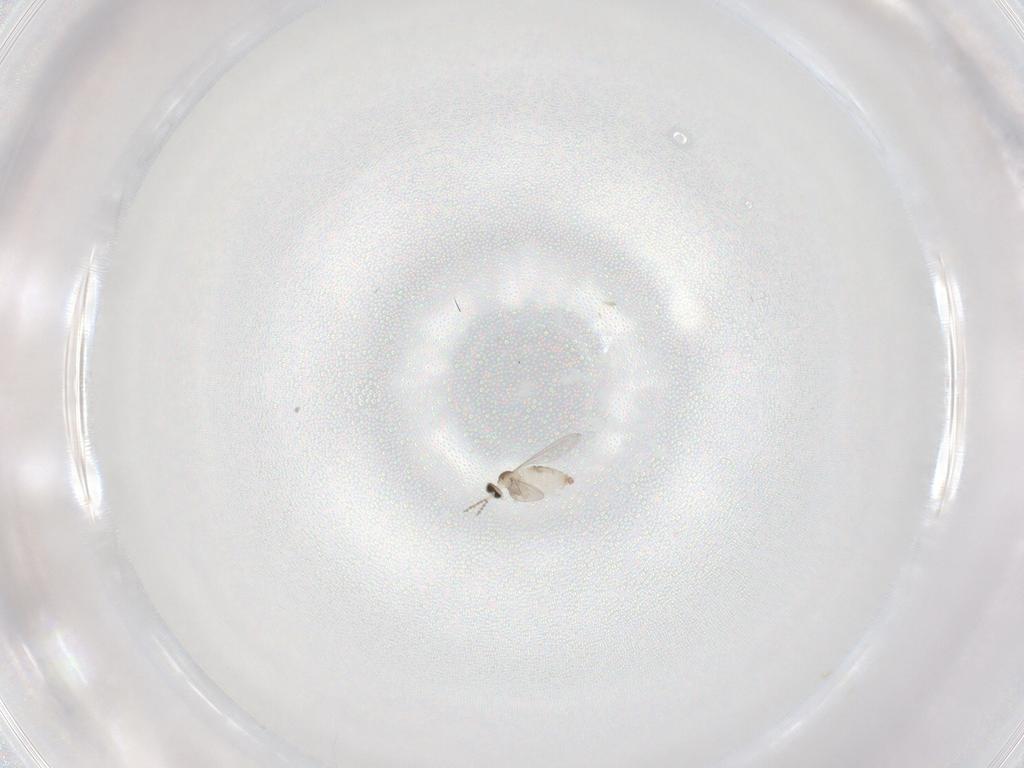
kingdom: Animalia
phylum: Arthropoda
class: Insecta
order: Diptera
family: Cecidomyiidae
